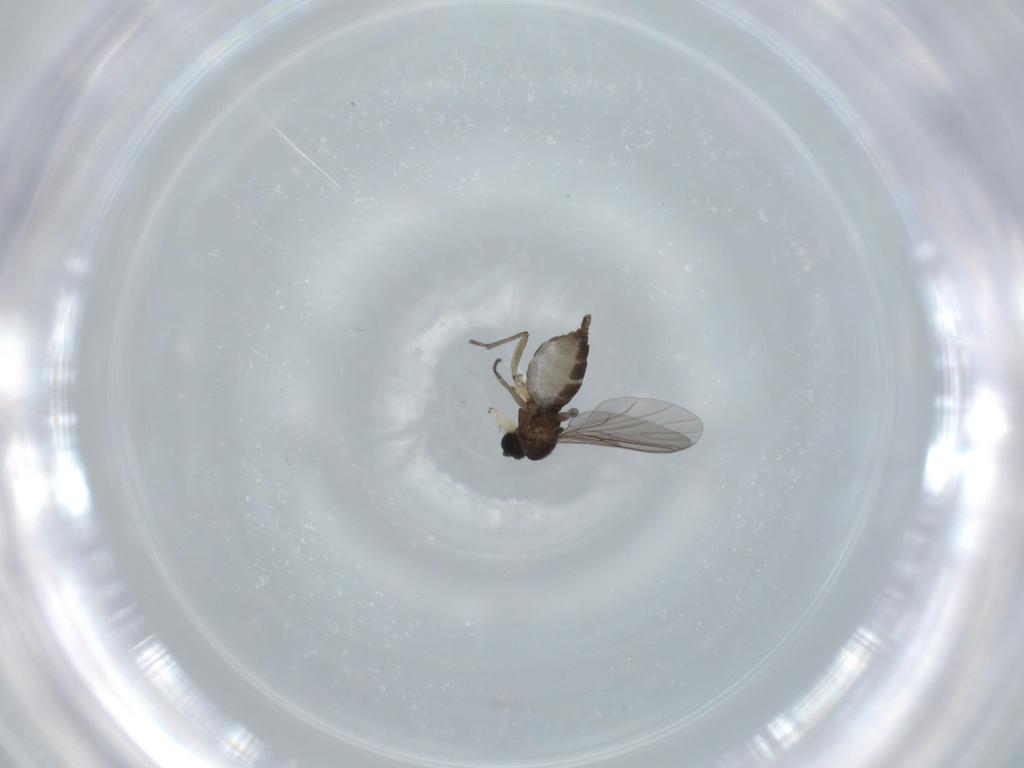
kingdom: Animalia
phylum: Arthropoda
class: Insecta
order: Diptera
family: Sciaridae
